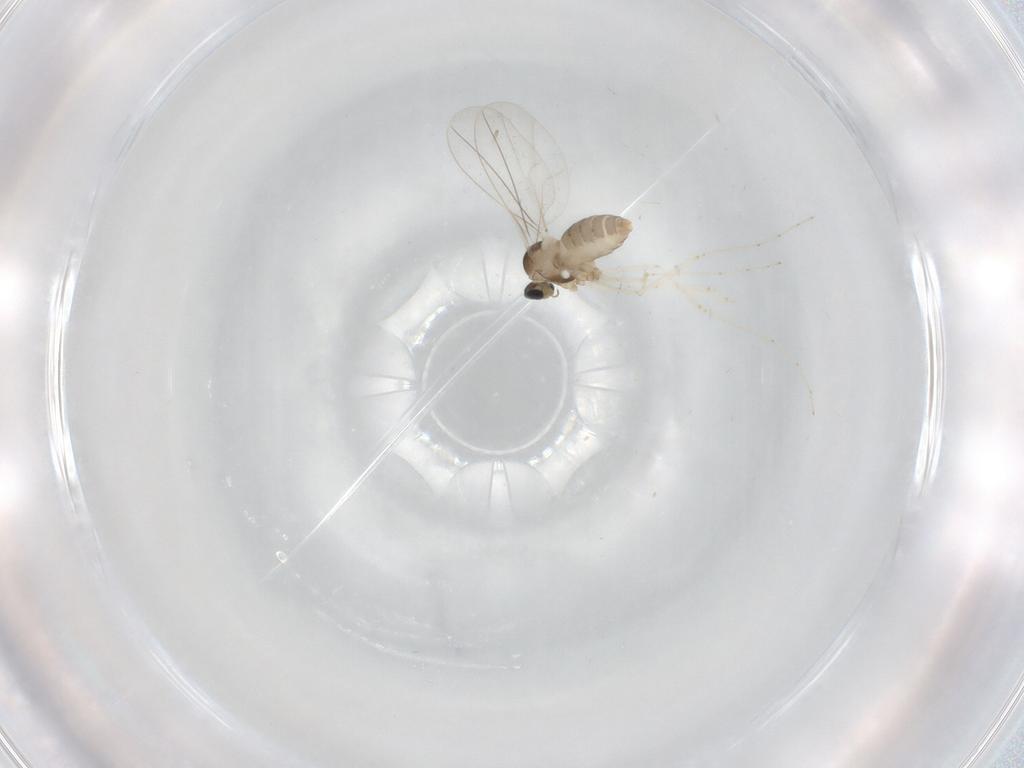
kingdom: Animalia
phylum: Arthropoda
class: Insecta
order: Diptera
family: Cecidomyiidae
